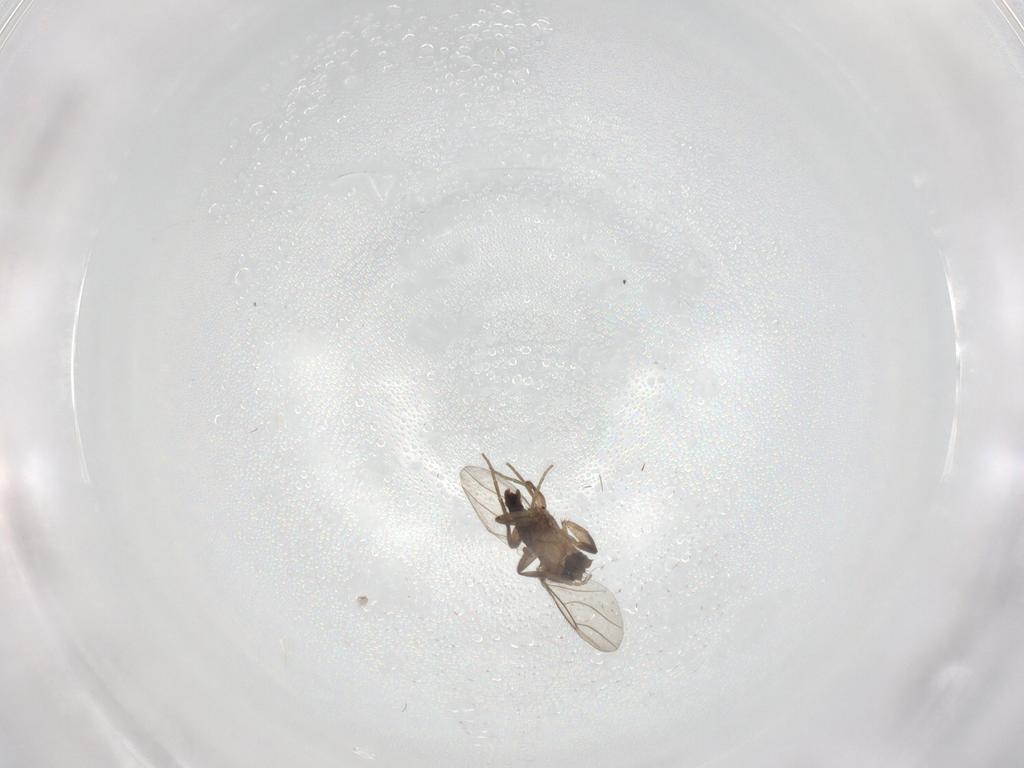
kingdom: Animalia
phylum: Arthropoda
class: Insecta
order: Diptera
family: Phoridae
